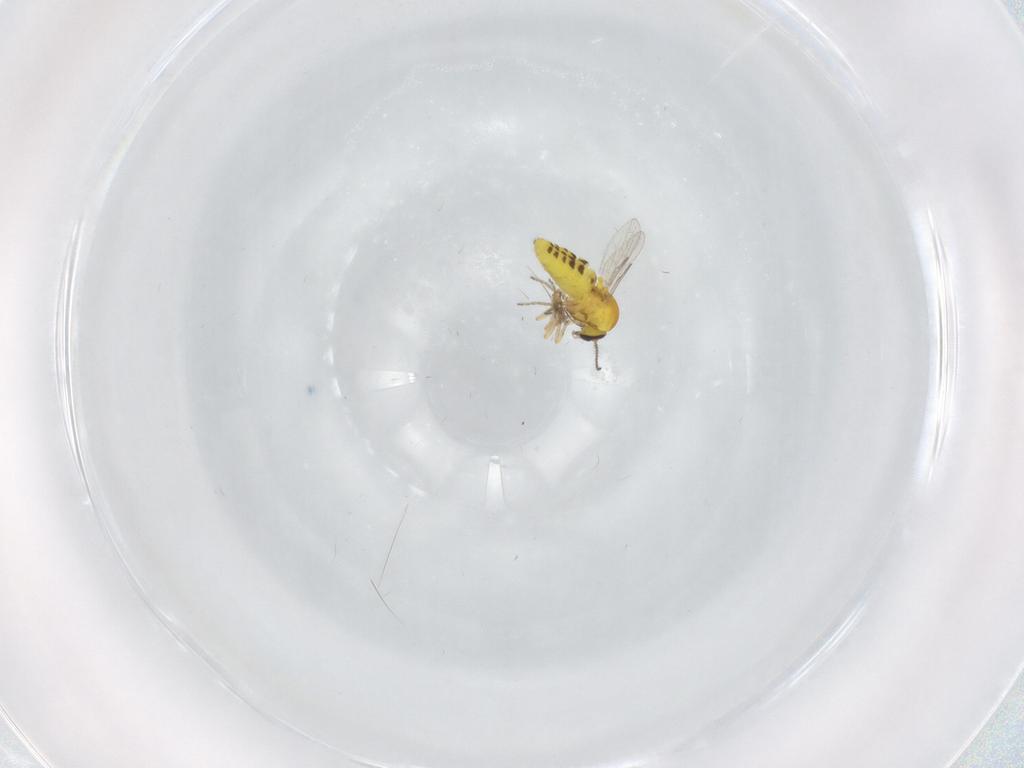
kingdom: Animalia
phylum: Arthropoda
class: Insecta
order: Diptera
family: Ceratopogonidae
